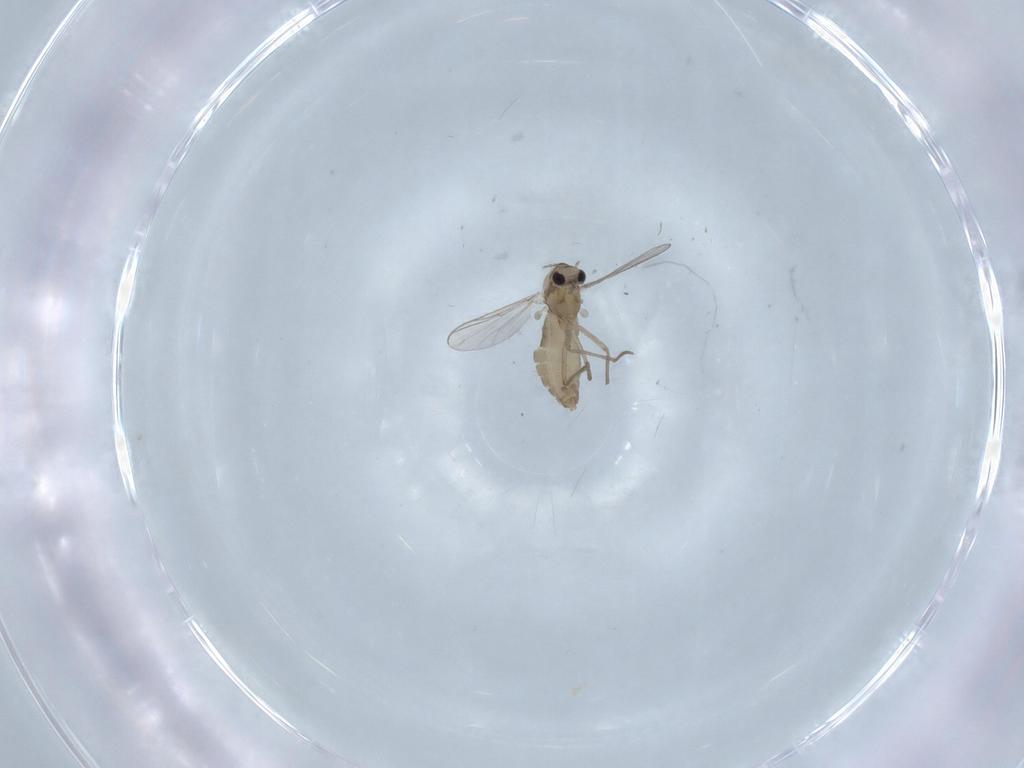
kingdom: Animalia
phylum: Arthropoda
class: Insecta
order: Diptera
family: Chironomidae
